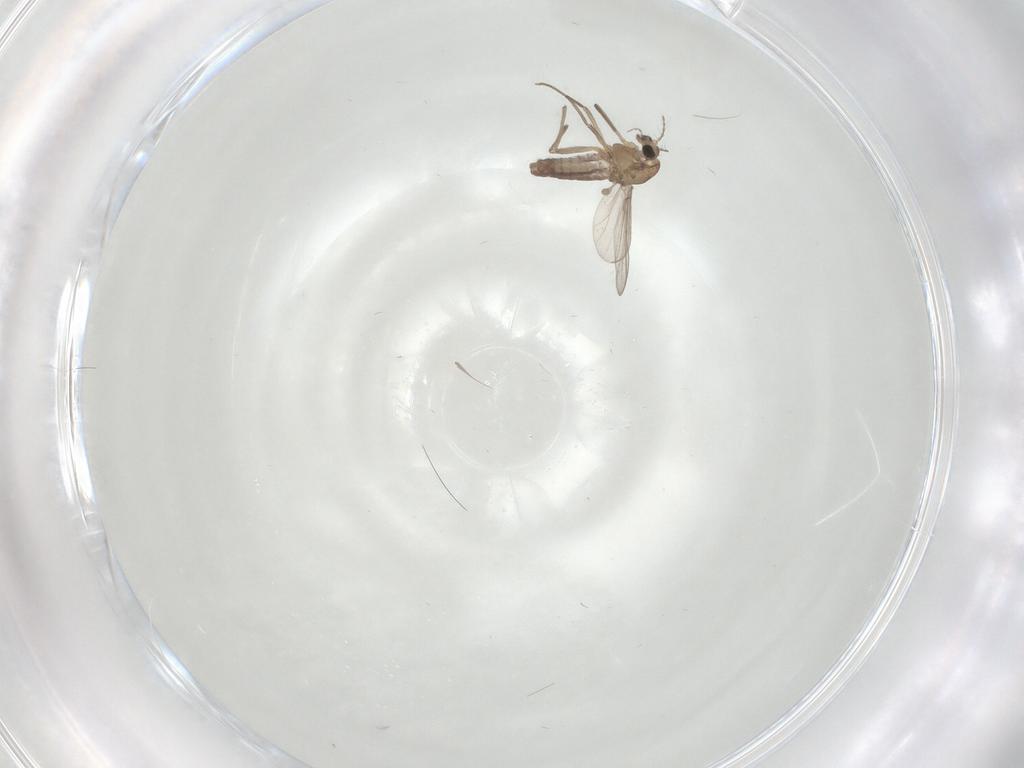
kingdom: Animalia
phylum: Arthropoda
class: Insecta
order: Diptera
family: Chironomidae
